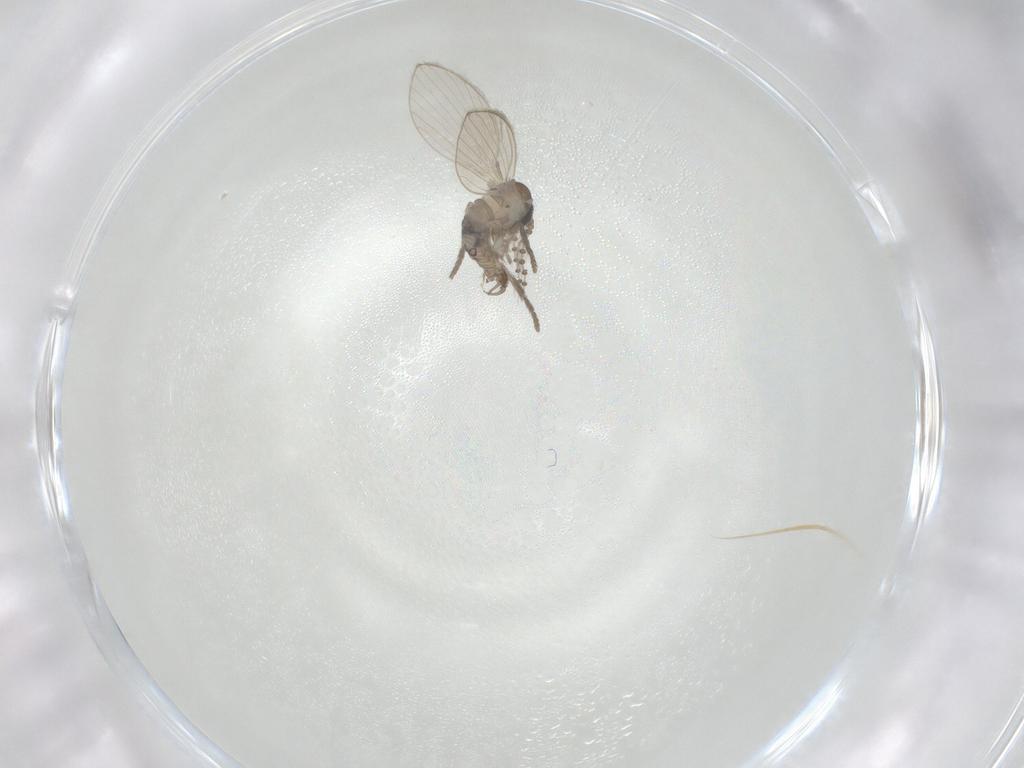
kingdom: Animalia
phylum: Arthropoda
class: Insecta
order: Diptera
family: Psychodidae
